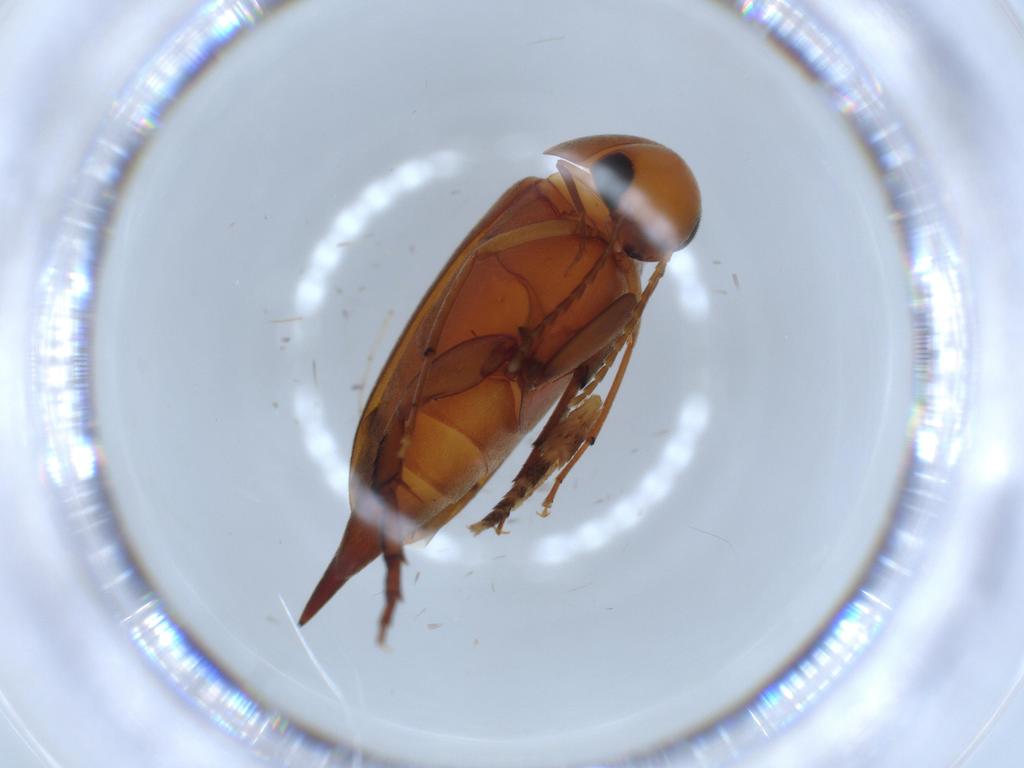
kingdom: Animalia
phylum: Arthropoda
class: Insecta
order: Coleoptera
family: Mordellidae
